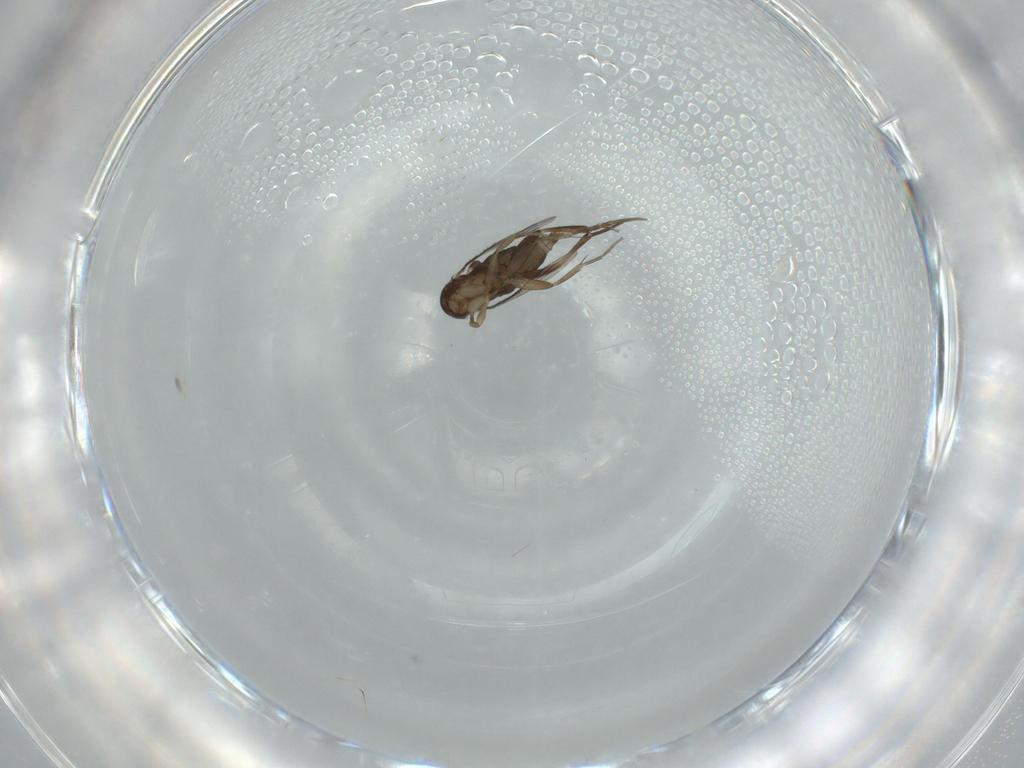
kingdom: Animalia
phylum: Arthropoda
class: Insecta
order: Diptera
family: Phoridae
